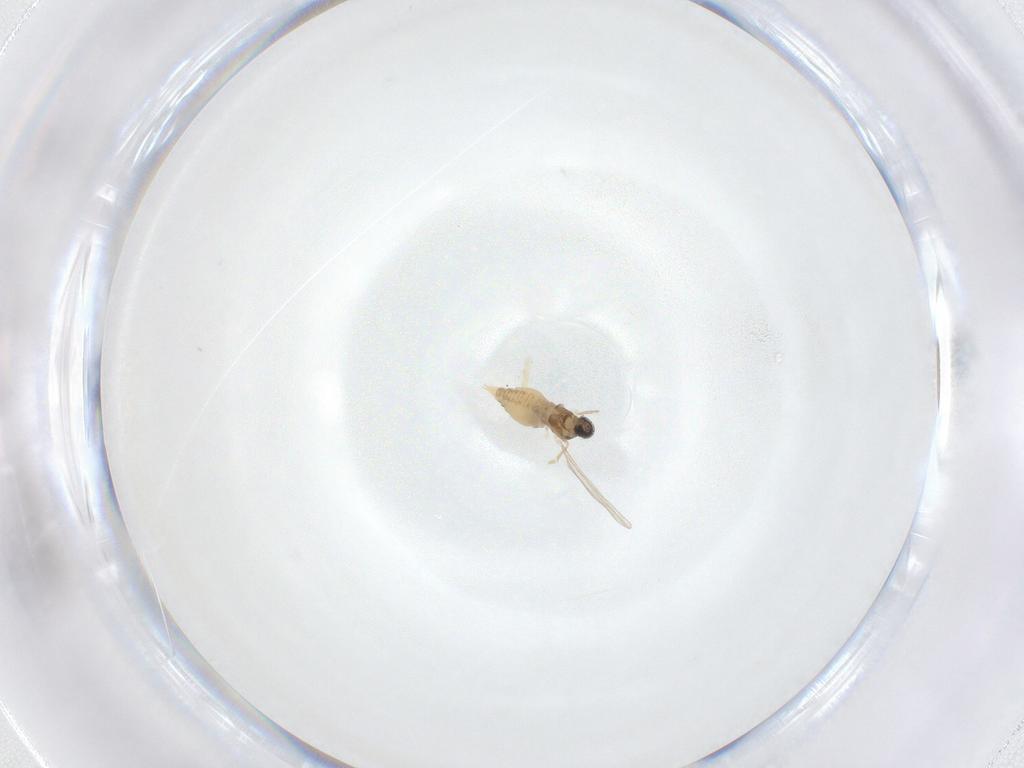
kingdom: Animalia
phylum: Arthropoda
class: Insecta
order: Diptera
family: Cecidomyiidae
